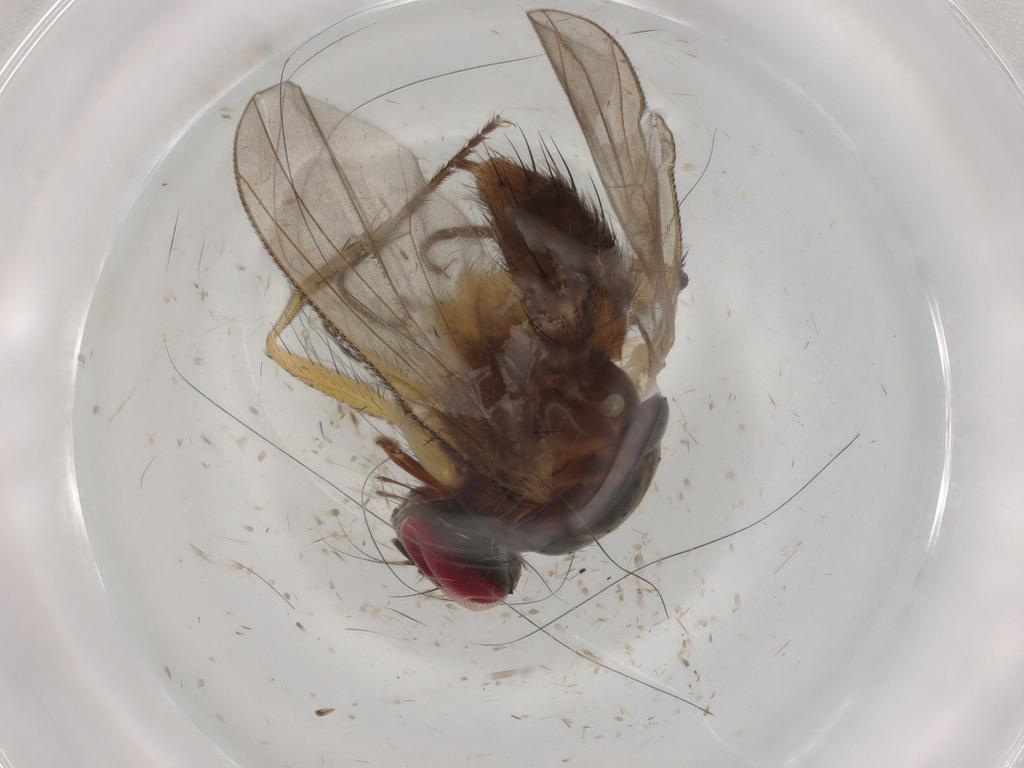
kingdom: Animalia
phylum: Arthropoda
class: Insecta
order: Diptera
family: Muscidae
